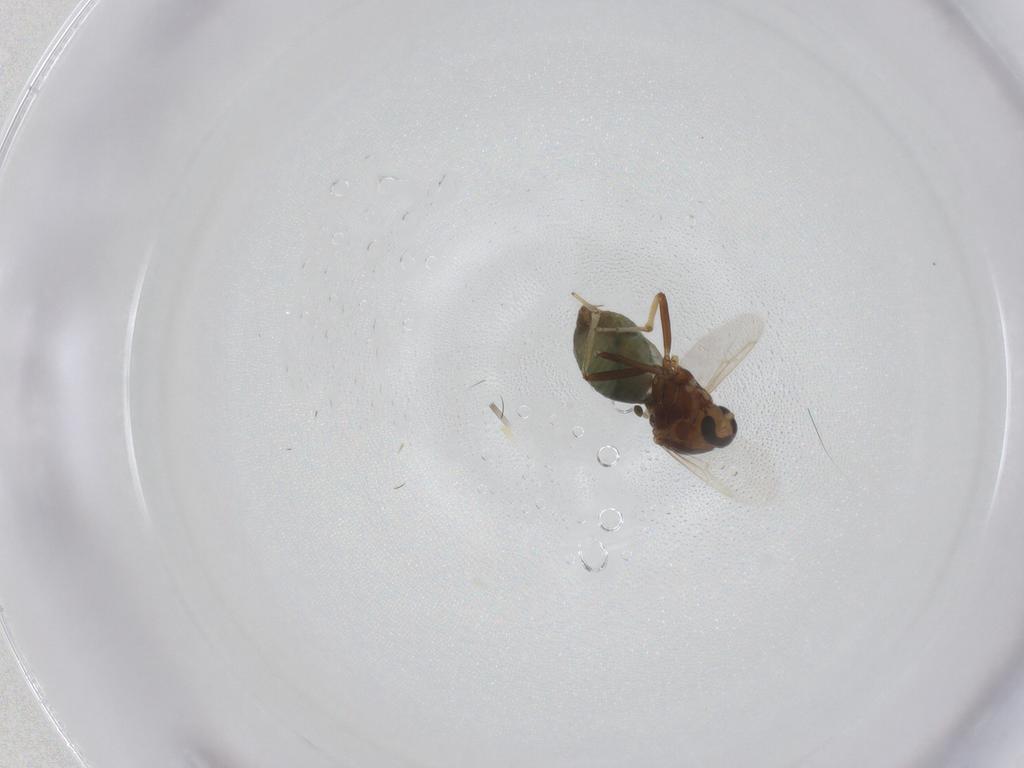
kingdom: Animalia
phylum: Arthropoda
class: Insecta
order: Diptera
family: Ceratopogonidae
